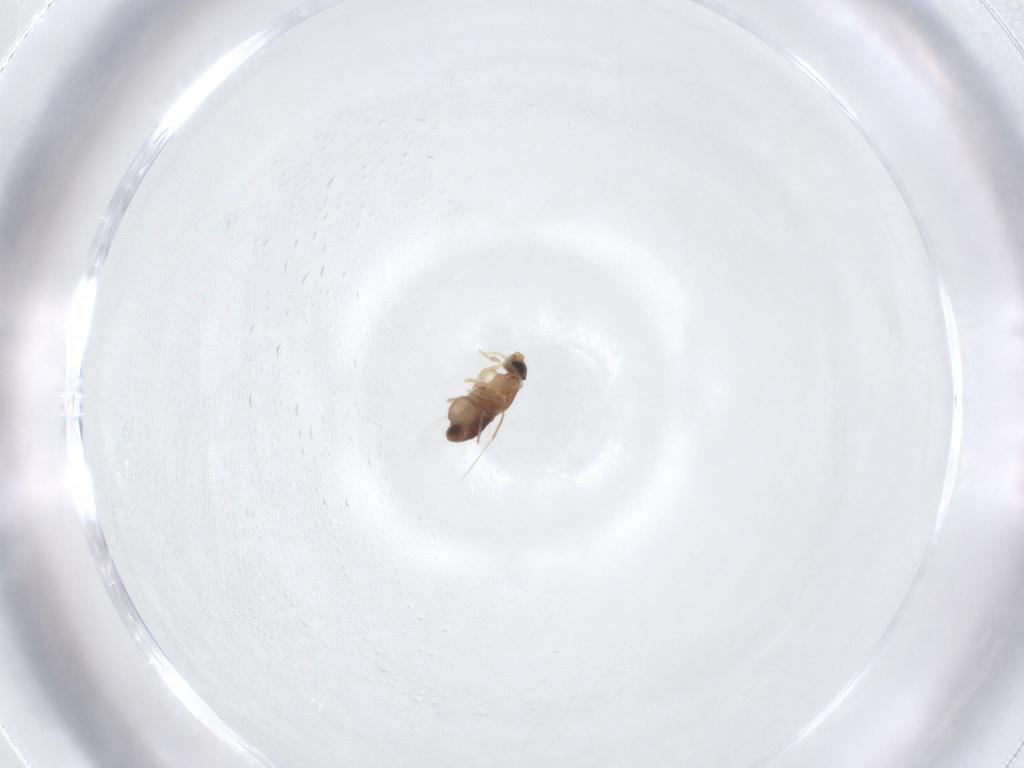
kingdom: Animalia
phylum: Arthropoda
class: Insecta
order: Diptera
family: Phoridae
